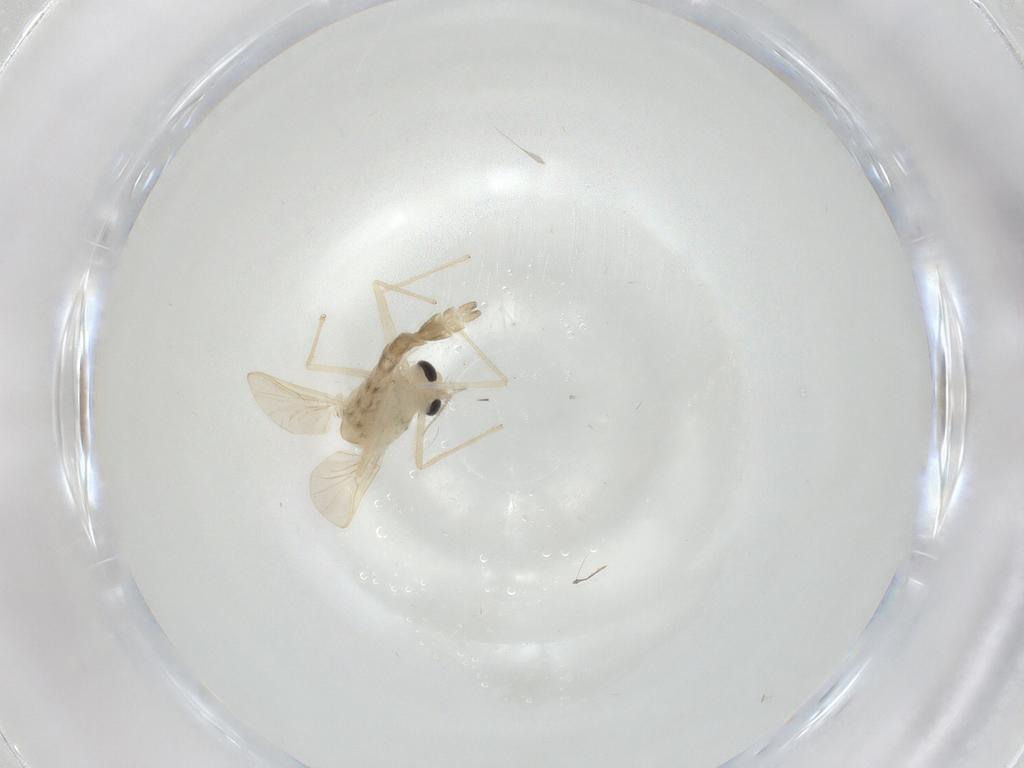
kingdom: Animalia
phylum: Arthropoda
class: Insecta
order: Diptera
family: Chironomidae
